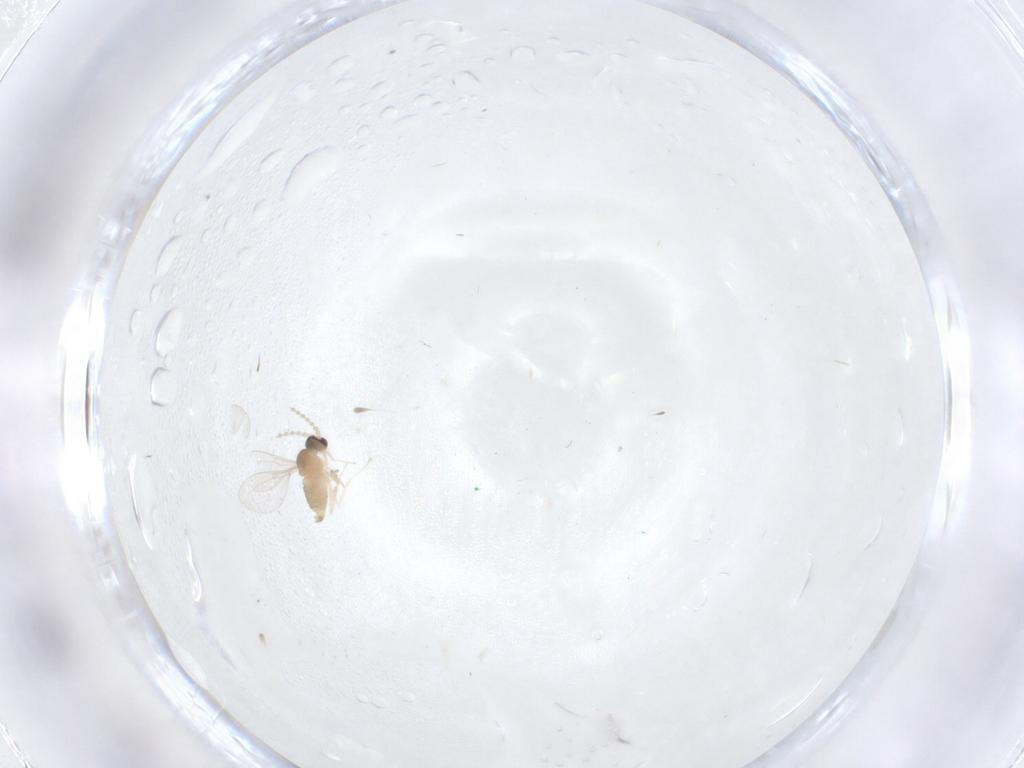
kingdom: Animalia
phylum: Arthropoda
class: Insecta
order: Diptera
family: Cecidomyiidae
